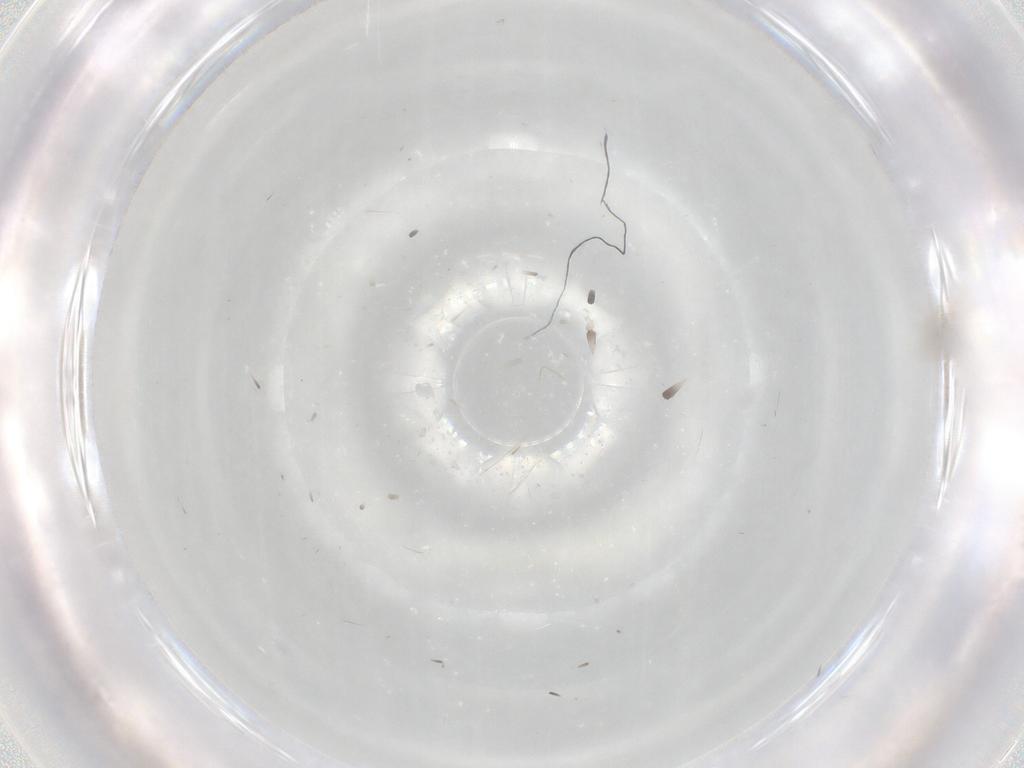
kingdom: Animalia
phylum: Arthropoda
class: Insecta
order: Diptera
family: Cecidomyiidae
